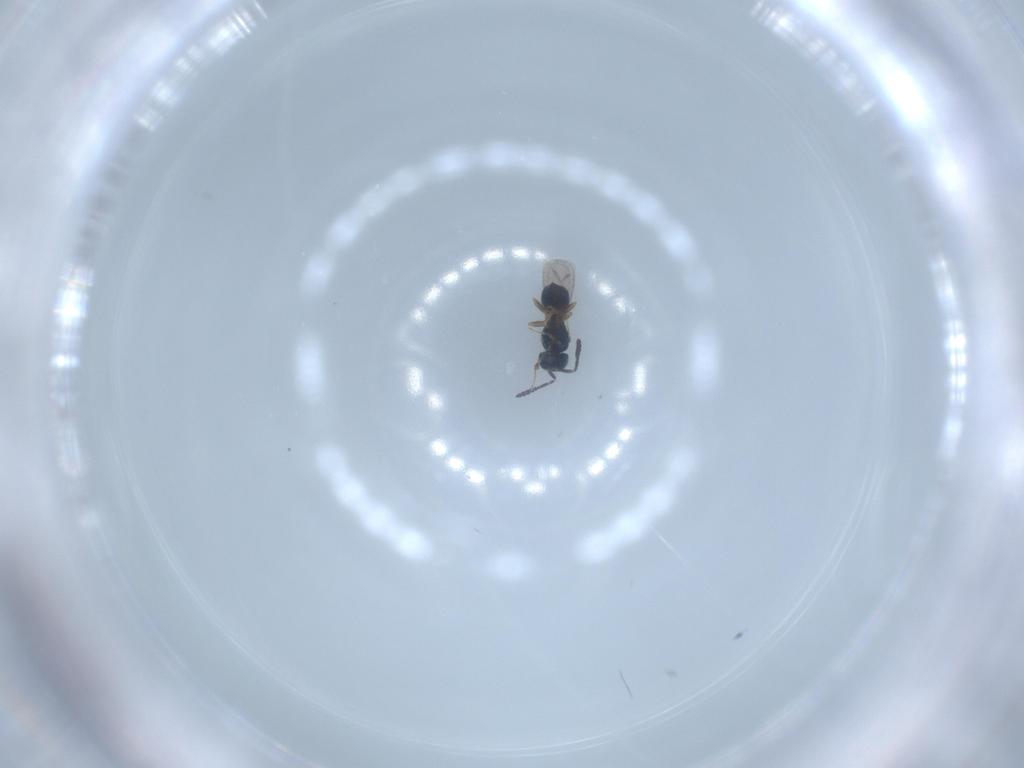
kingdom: Animalia
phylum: Arthropoda
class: Insecta
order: Hymenoptera
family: Scelionidae
